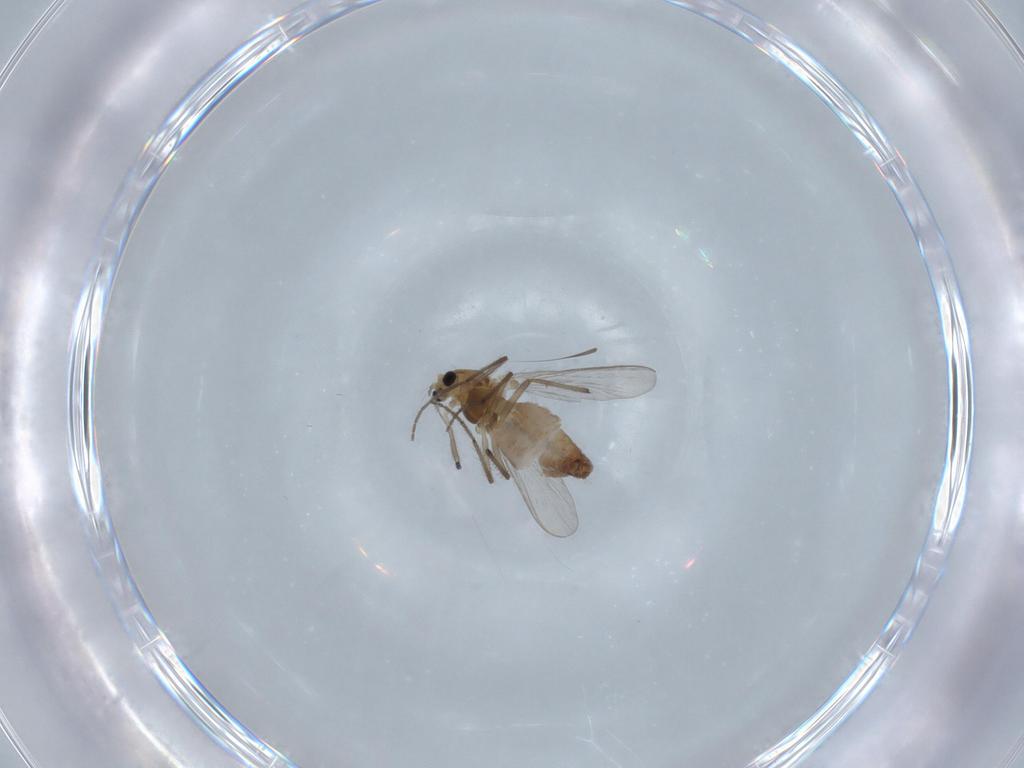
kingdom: Animalia
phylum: Arthropoda
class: Insecta
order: Diptera
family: Chironomidae
